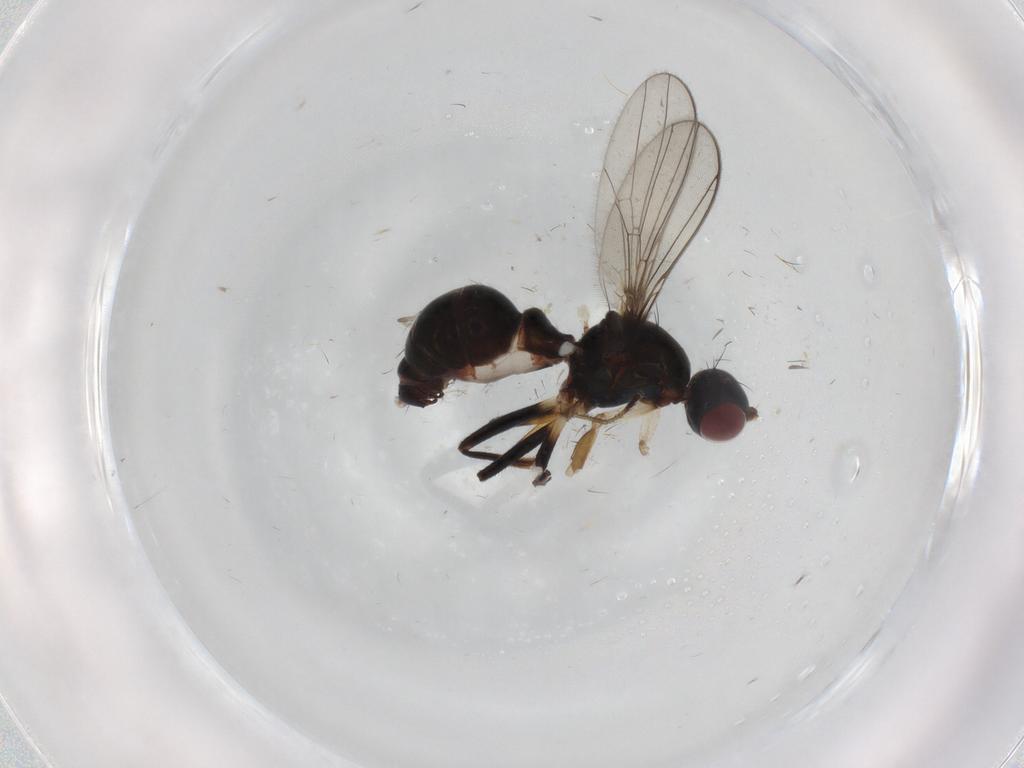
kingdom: Animalia
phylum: Arthropoda
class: Insecta
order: Diptera
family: Sepsidae
